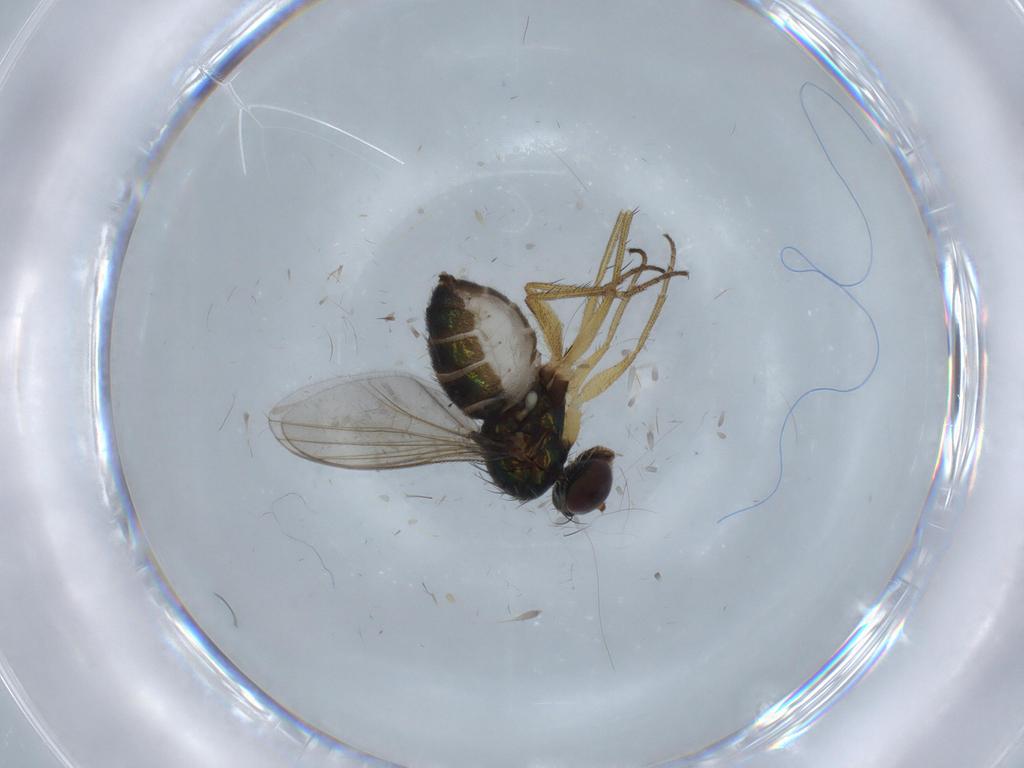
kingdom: Animalia
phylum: Arthropoda
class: Insecta
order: Diptera
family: Chironomidae
